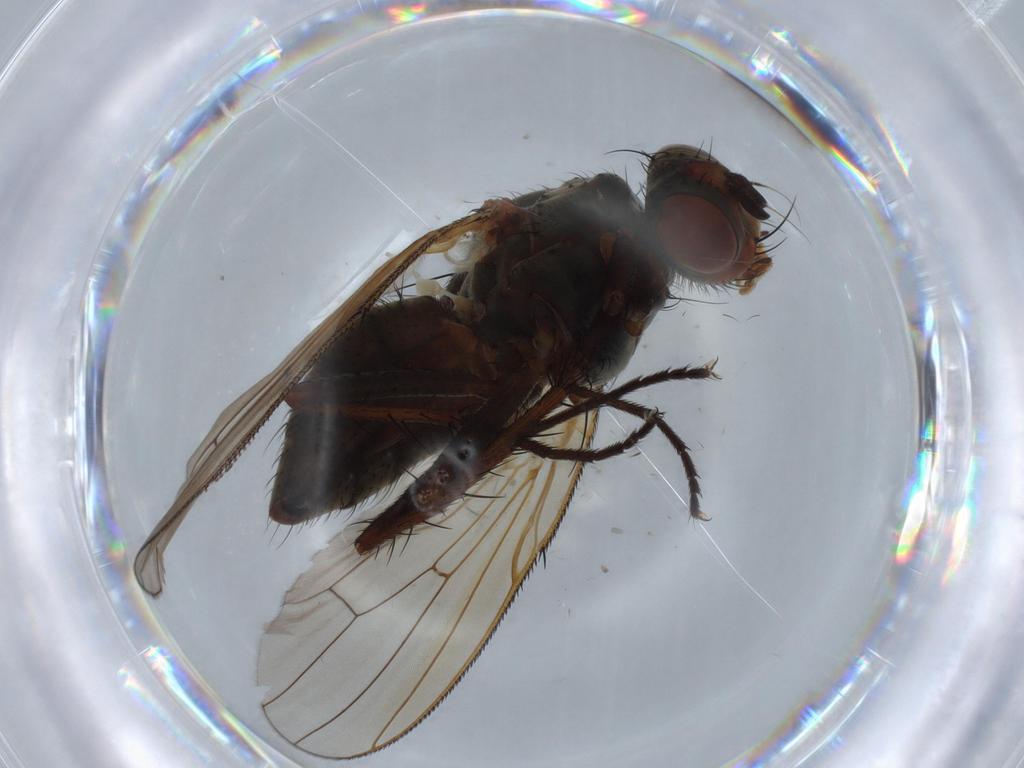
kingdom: Animalia
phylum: Arthropoda
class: Insecta
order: Diptera
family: Anthomyiidae
